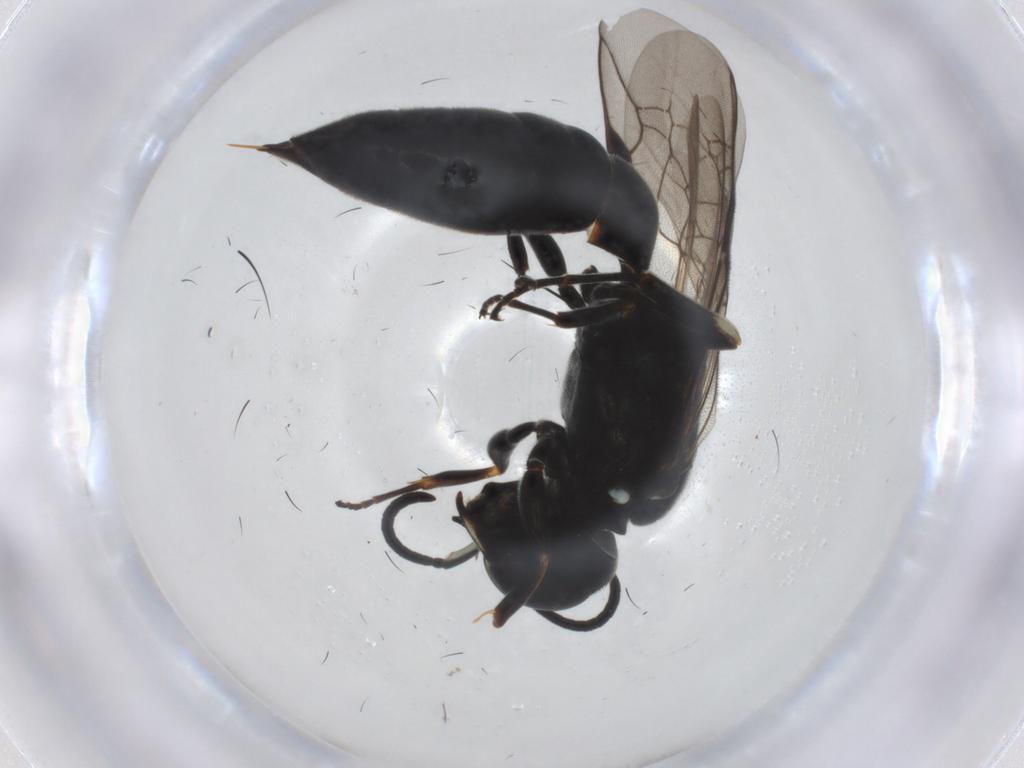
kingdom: Animalia
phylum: Arthropoda
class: Insecta
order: Hymenoptera
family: Pemphredonidae
